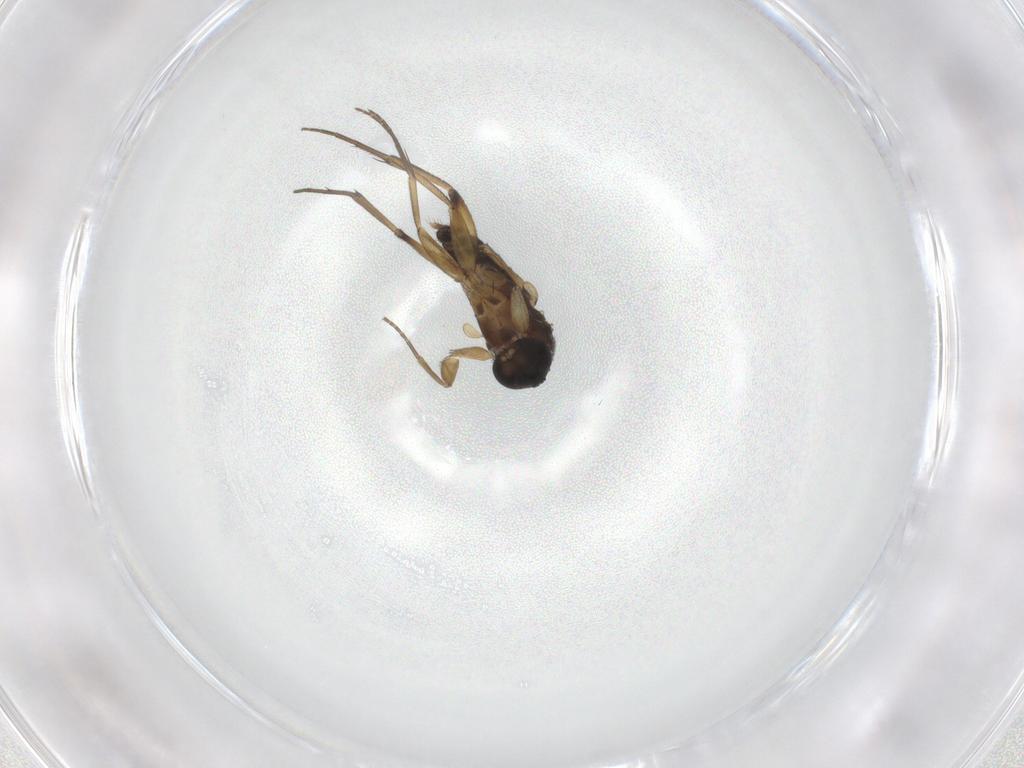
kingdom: Animalia
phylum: Arthropoda
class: Insecta
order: Diptera
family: Phoridae
